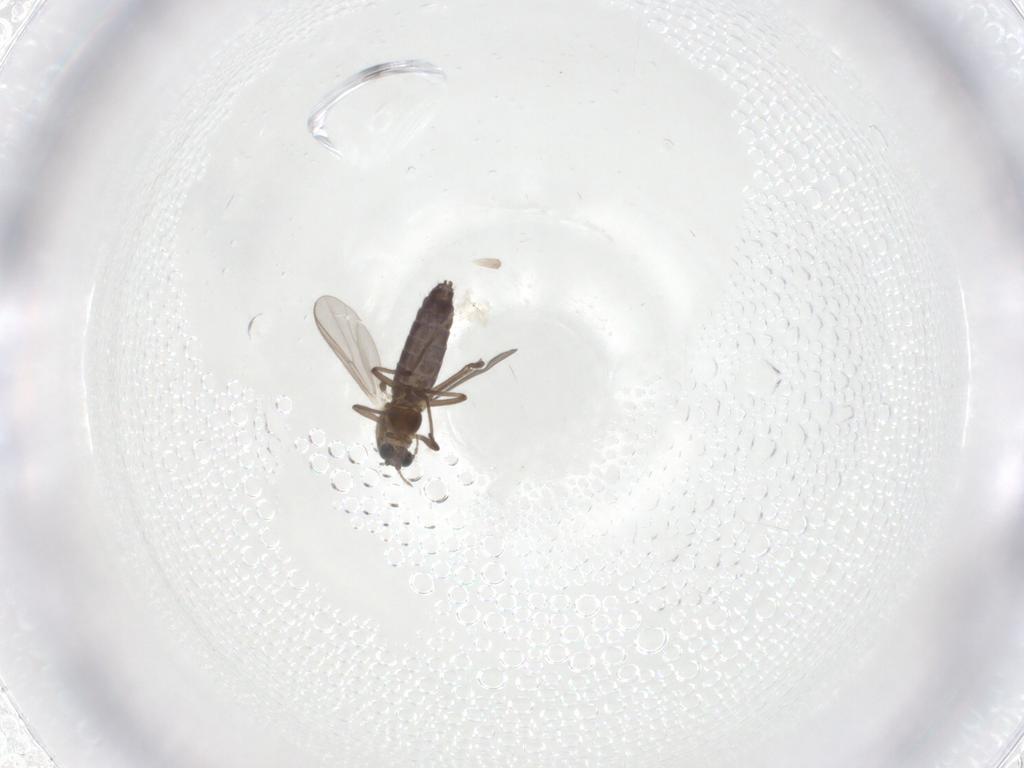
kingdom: Animalia
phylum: Arthropoda
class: Insecta
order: Diptera
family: Chironomidae
